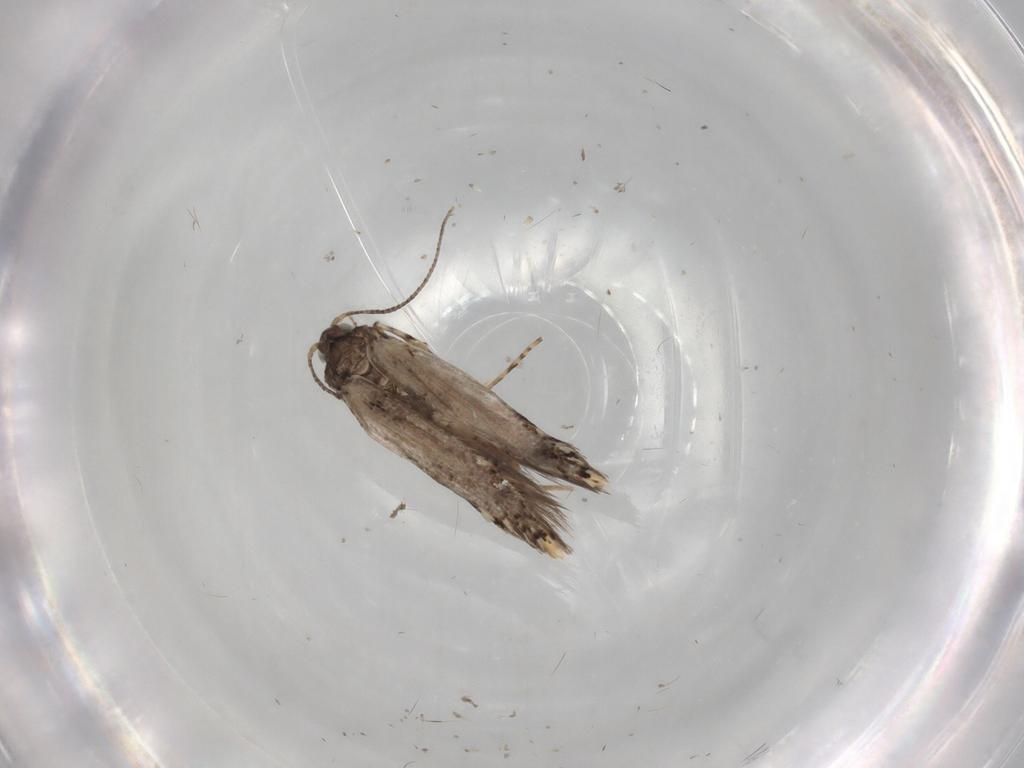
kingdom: Animalia
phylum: Arthropoda
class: Insecta
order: Lepidoptera
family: Tineidae
